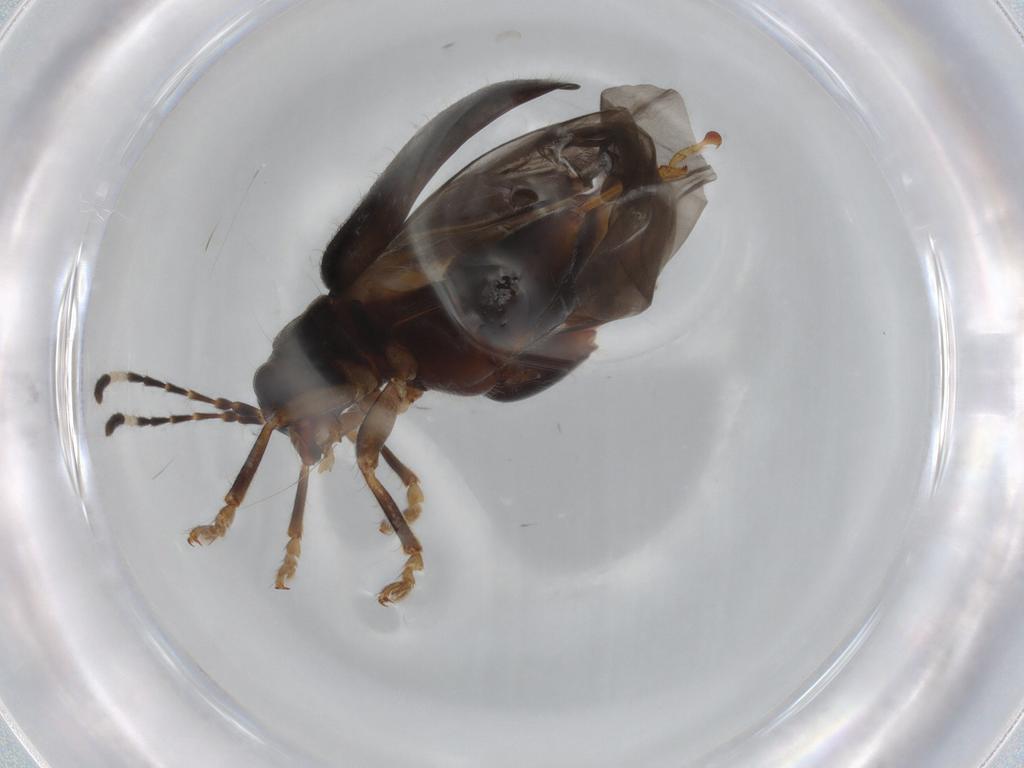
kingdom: Animalia
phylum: Arthropoda
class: Insecta
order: Coleoptera
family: Chrysomelidae
